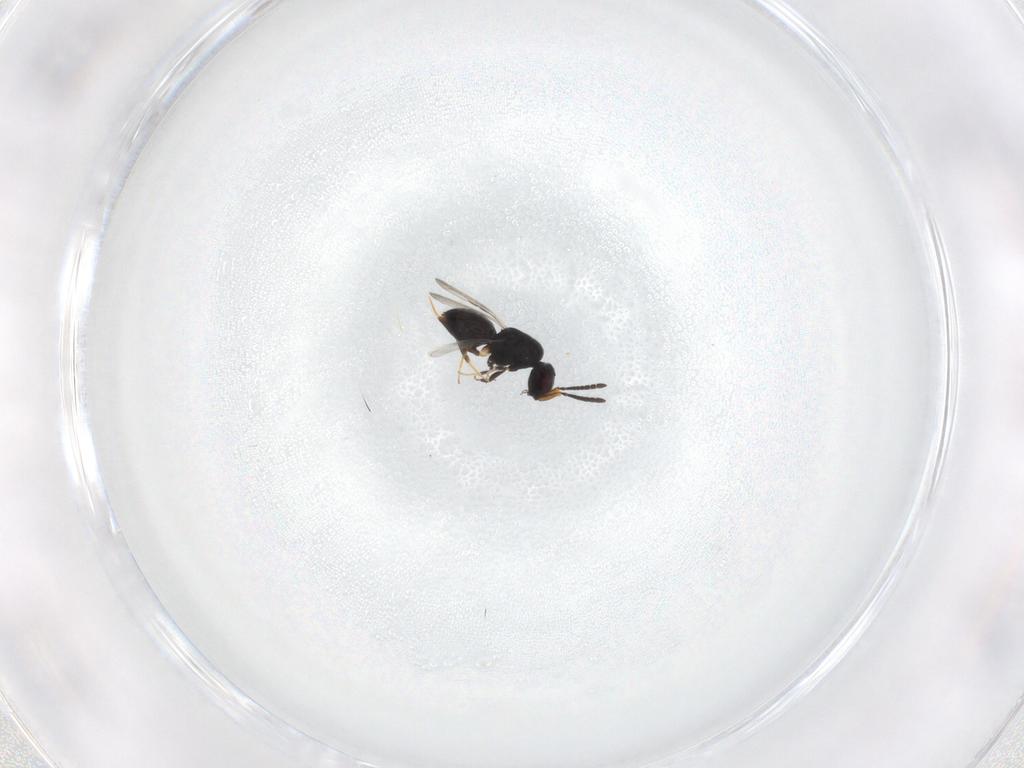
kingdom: Animalia
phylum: Arthropoda
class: Insecta
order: Hymenoptera
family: Ceraphronidae
